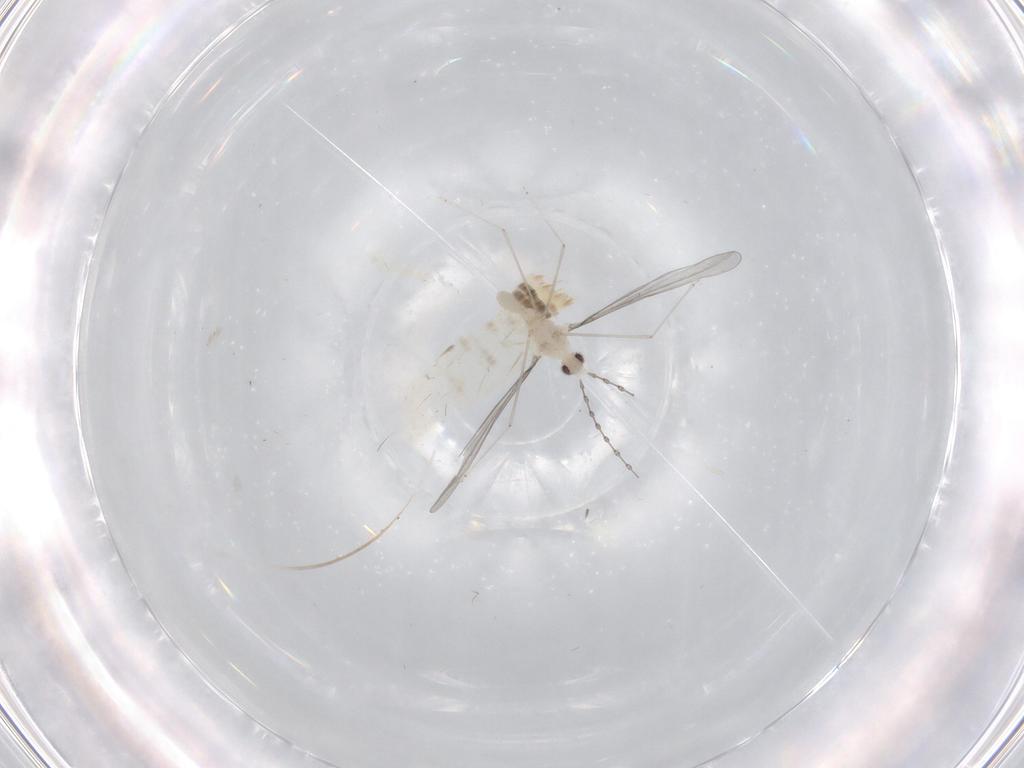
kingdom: Animalia
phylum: Arthropoda
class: Insecta
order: Diptera
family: Cecidomyiidae
